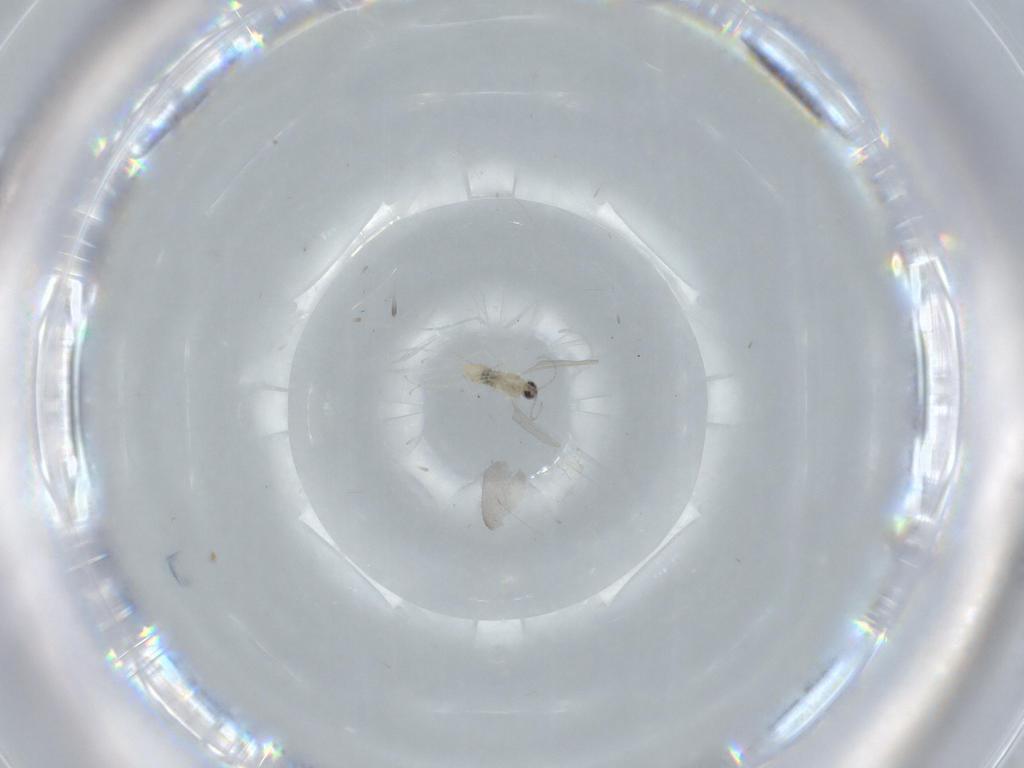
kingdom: Animalia
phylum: Arthropoda
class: Insecta
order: Diptera
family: Cecidomyiidae
